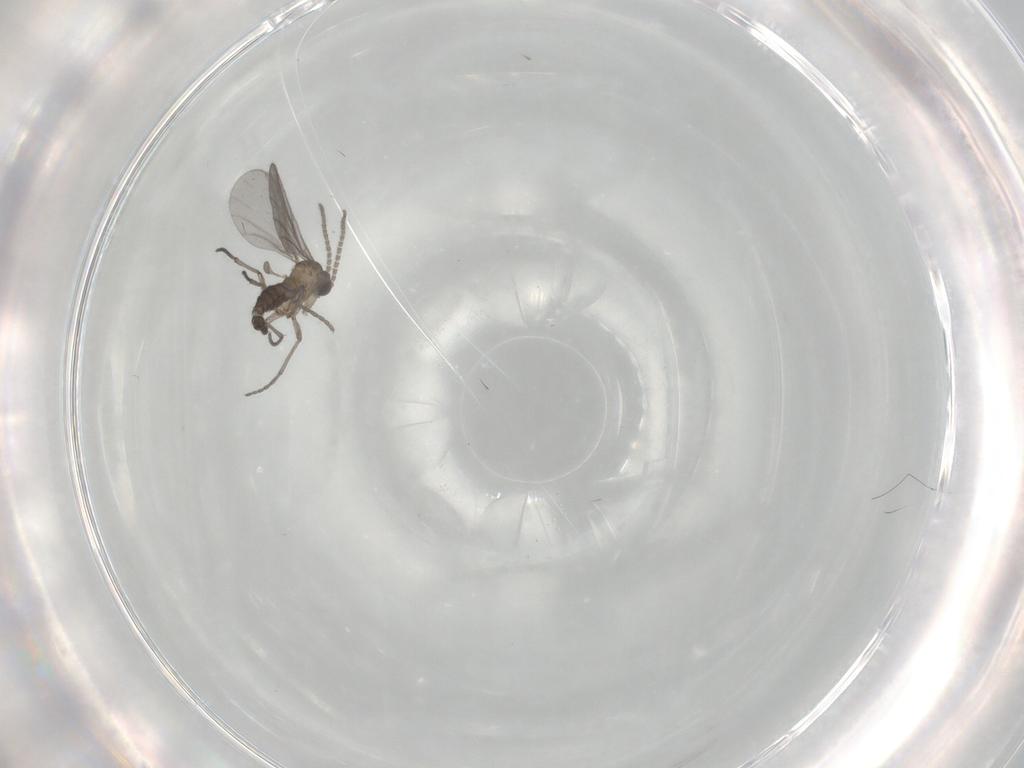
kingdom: Animalia
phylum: Arthropoda
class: Insecta
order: Diptera
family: Sciaridae
